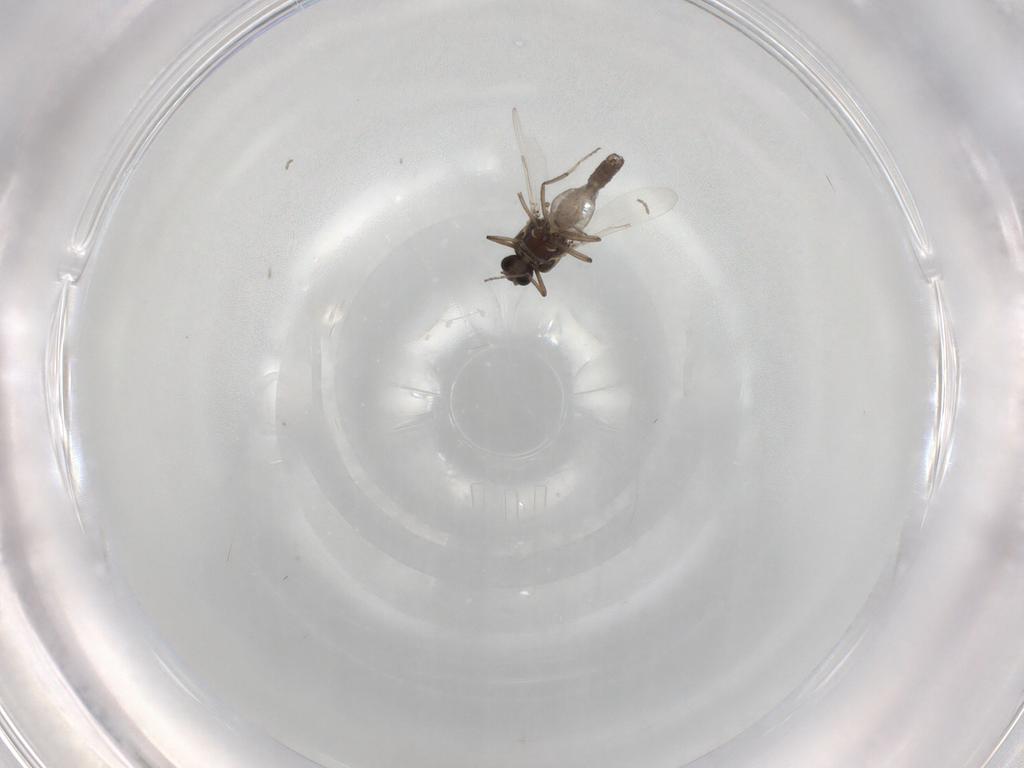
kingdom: Animalia
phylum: Arthropoda
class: Insecta
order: Diptera
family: Ceratopogonidae
